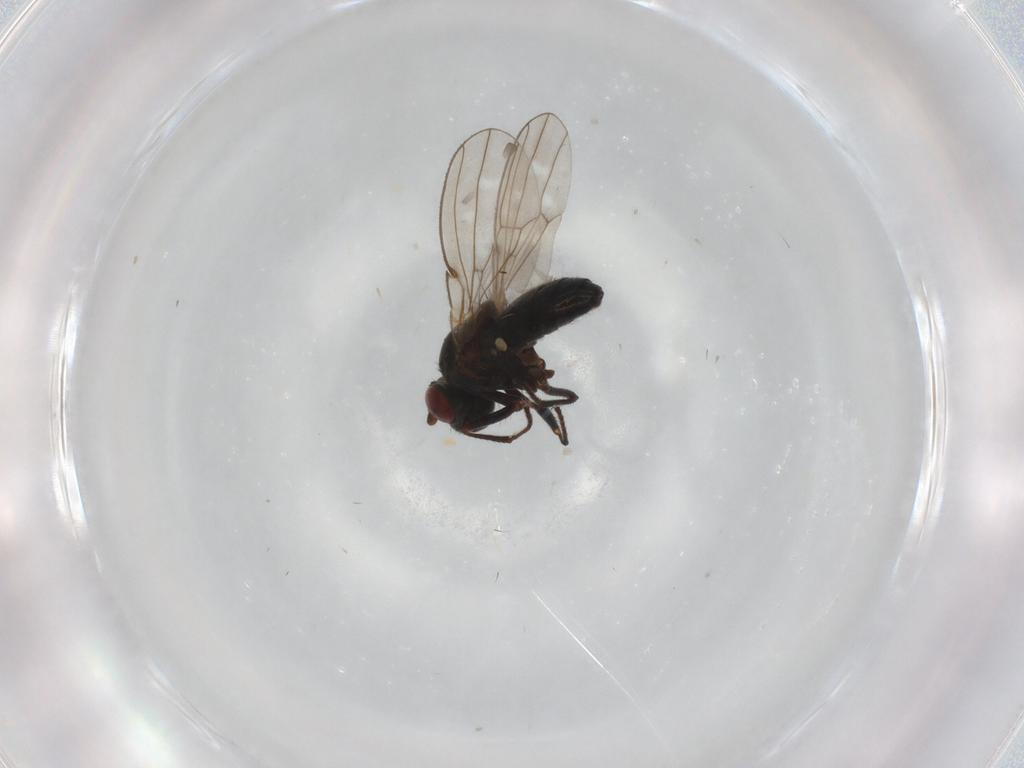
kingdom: Animalia
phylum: Arthropoda
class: Insecta
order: Diptera
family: Ephydridae
